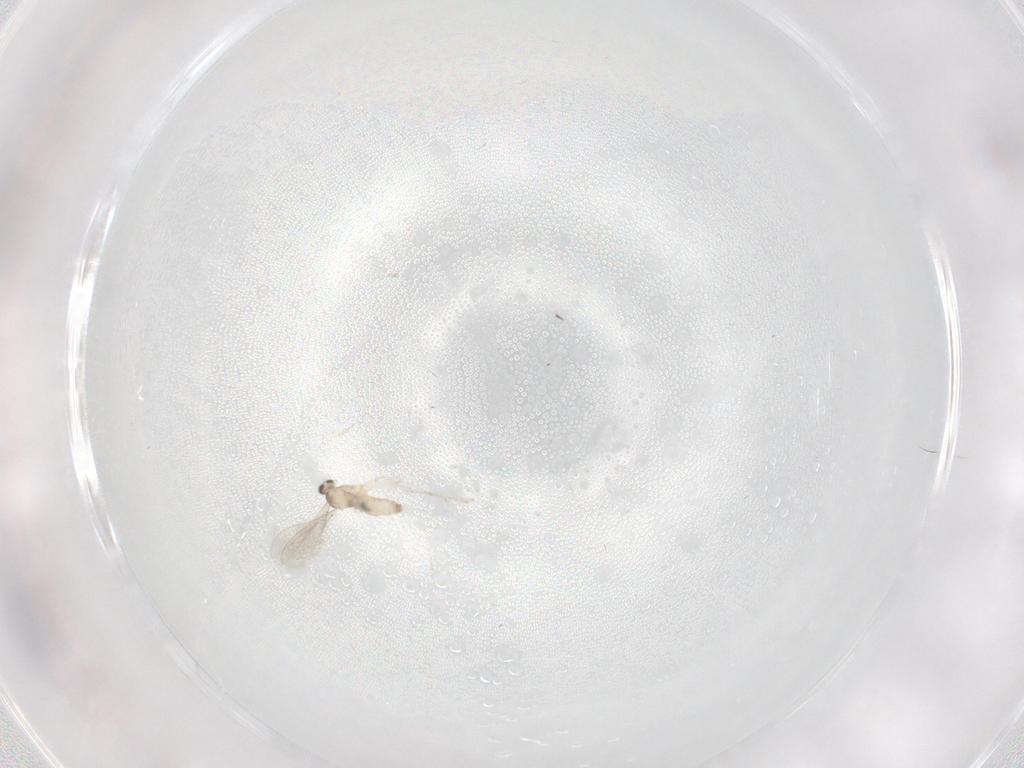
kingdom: Animalia
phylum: Arthropoda
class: Insecta
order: Diptera
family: Cecidomyiidae
